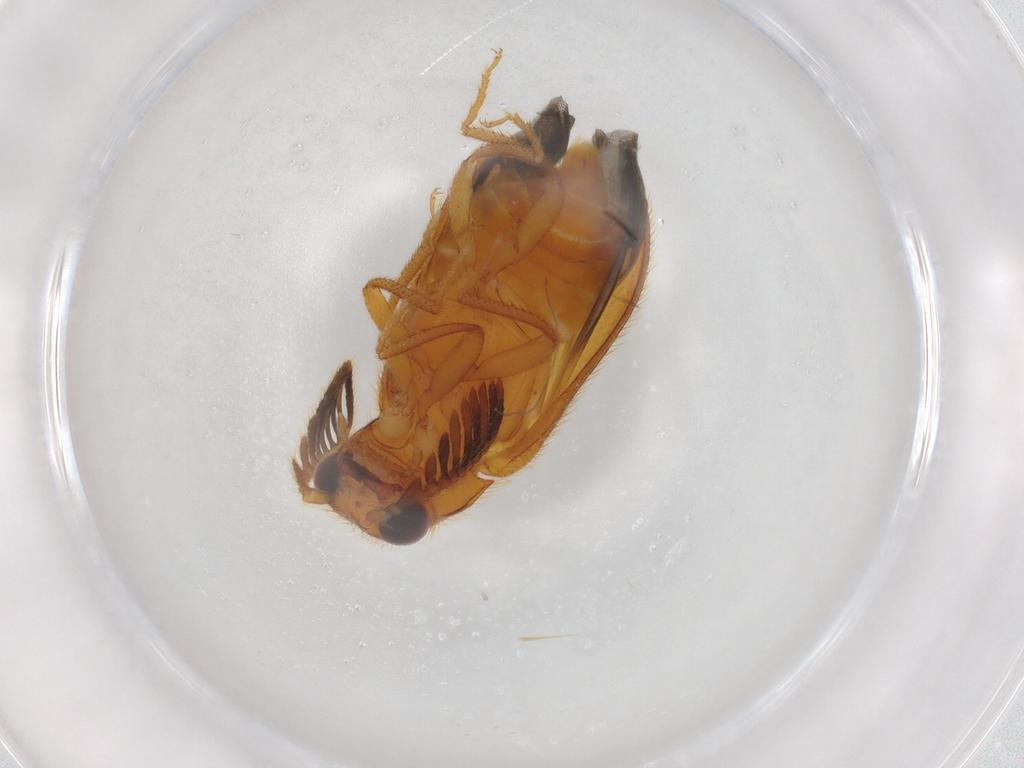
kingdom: Animalia
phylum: Arthropoda
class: Insecta
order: Coleoptera
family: Elateridae
